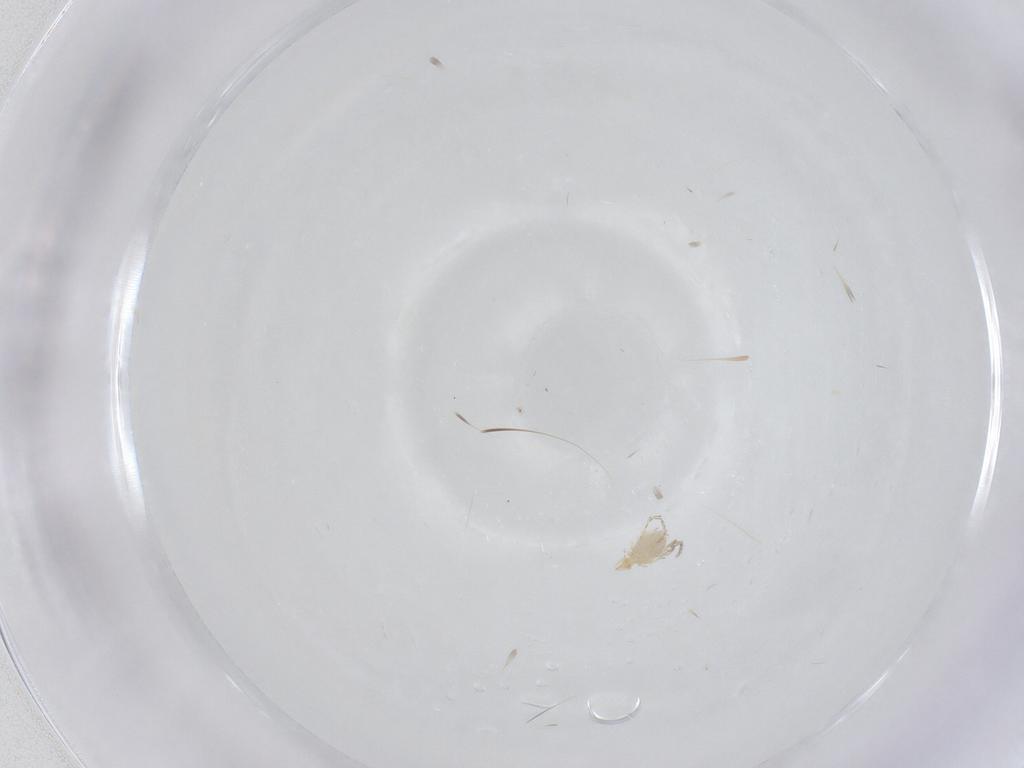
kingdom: Animalia
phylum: Arthropoda
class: Insecta
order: Diptera
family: Tachinidae
